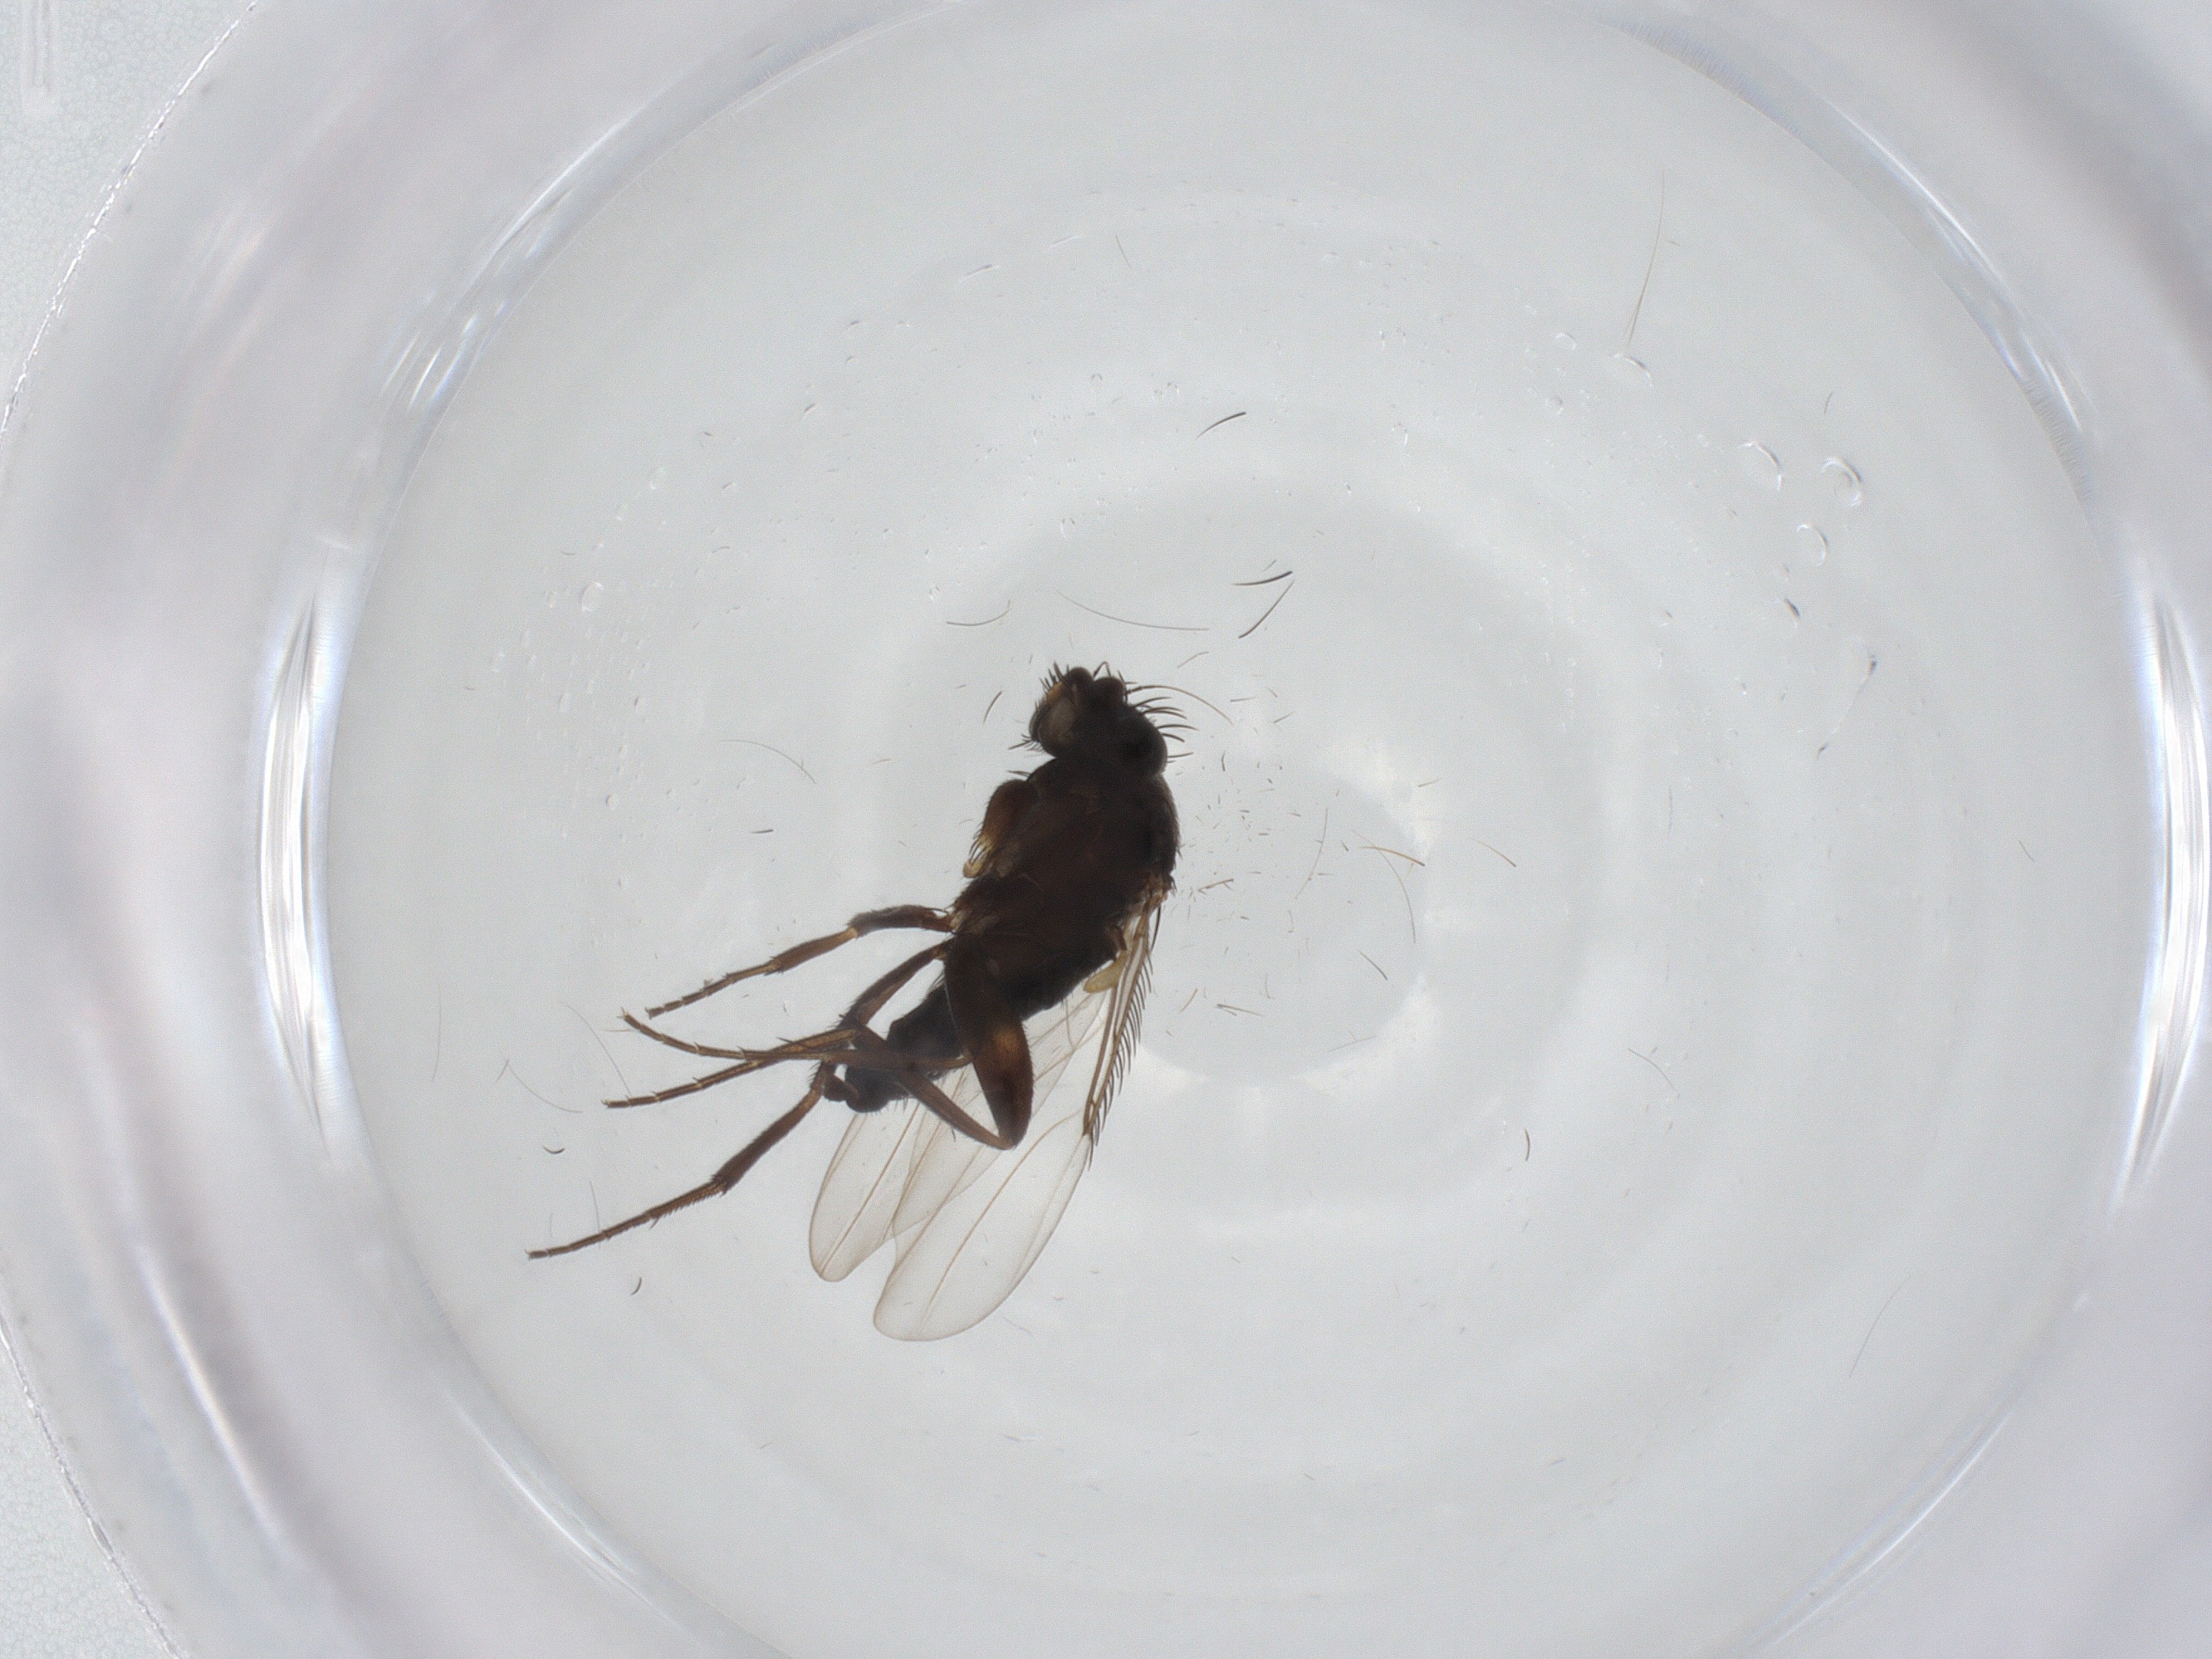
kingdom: Animalia
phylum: Arthropoda
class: Insecta
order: Diptera
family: Phoridae
